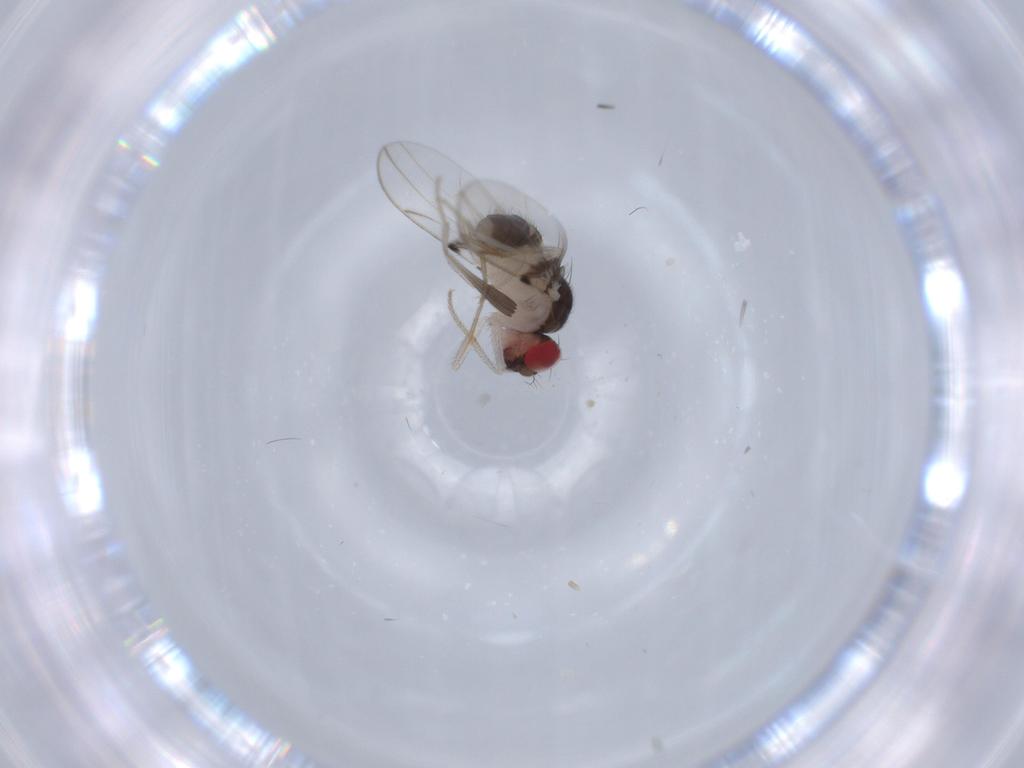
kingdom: Animalia
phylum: Arthropoda
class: Insecta
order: Diptera
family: Drosophilidae
